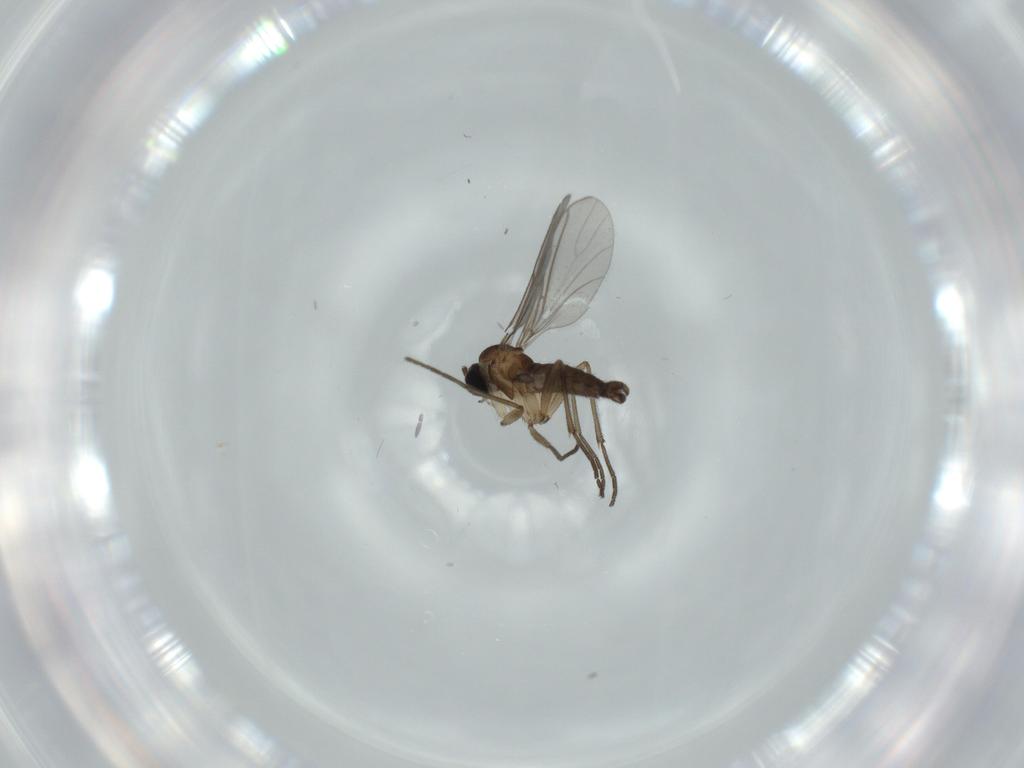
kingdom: Animalia
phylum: Arthropoda
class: Insecta
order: Diptera
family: Sciaridae
